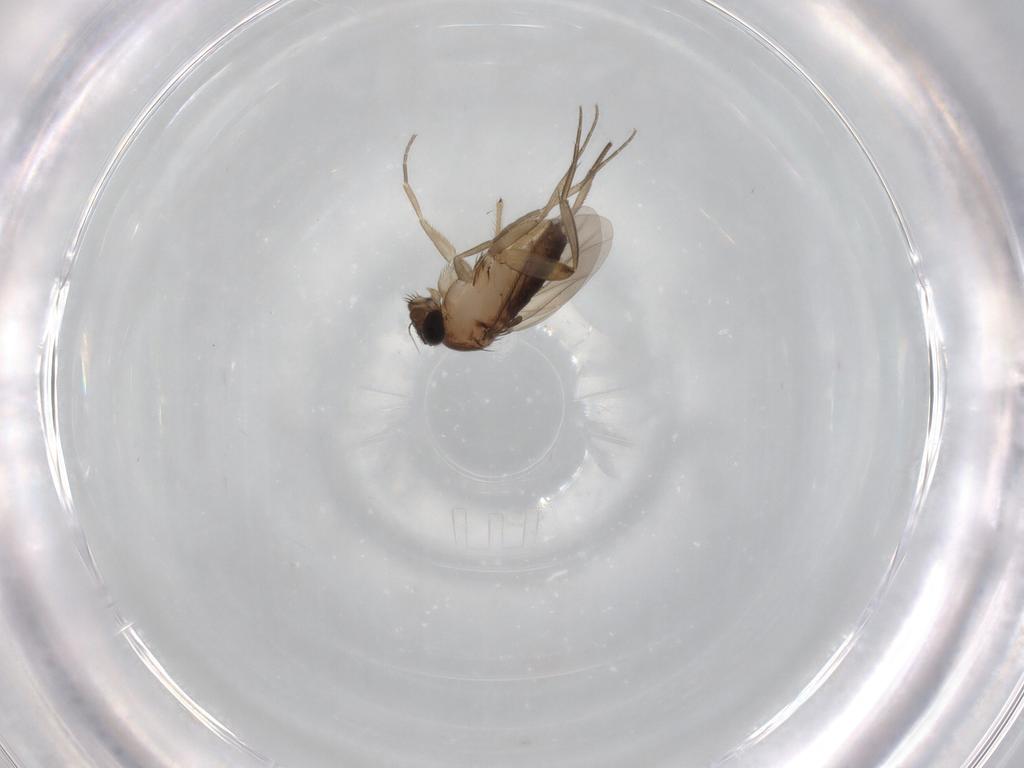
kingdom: Animalia
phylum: Arthropoda
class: Insecta
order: Diptera
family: Phoridae
